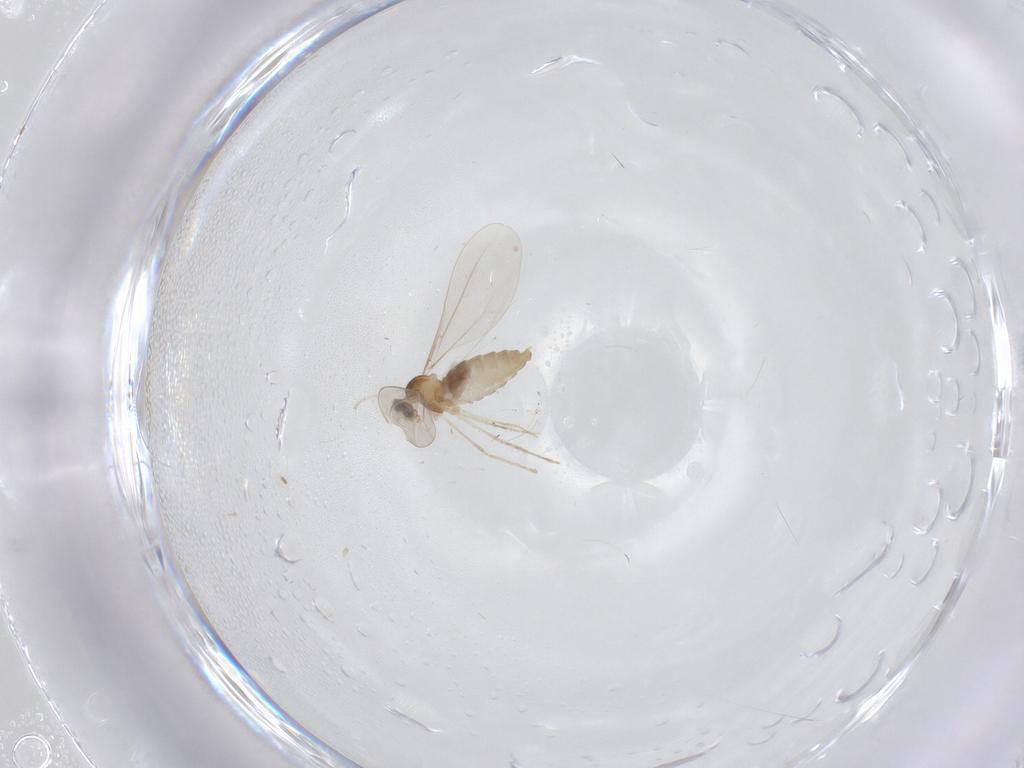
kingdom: Animalia
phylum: Arthropoda
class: Insecta
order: Diptera
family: Cecidomyiidae
